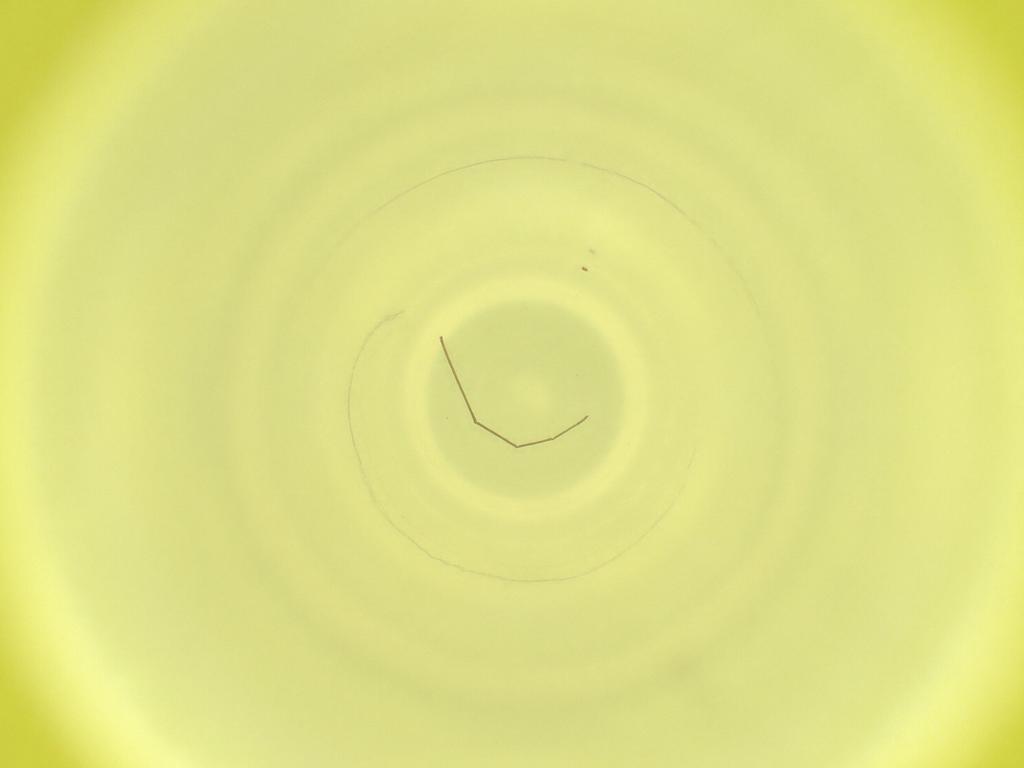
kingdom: Animalia
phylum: Arthropoda
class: Insecta
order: Diptera
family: Cecidomyiidae
